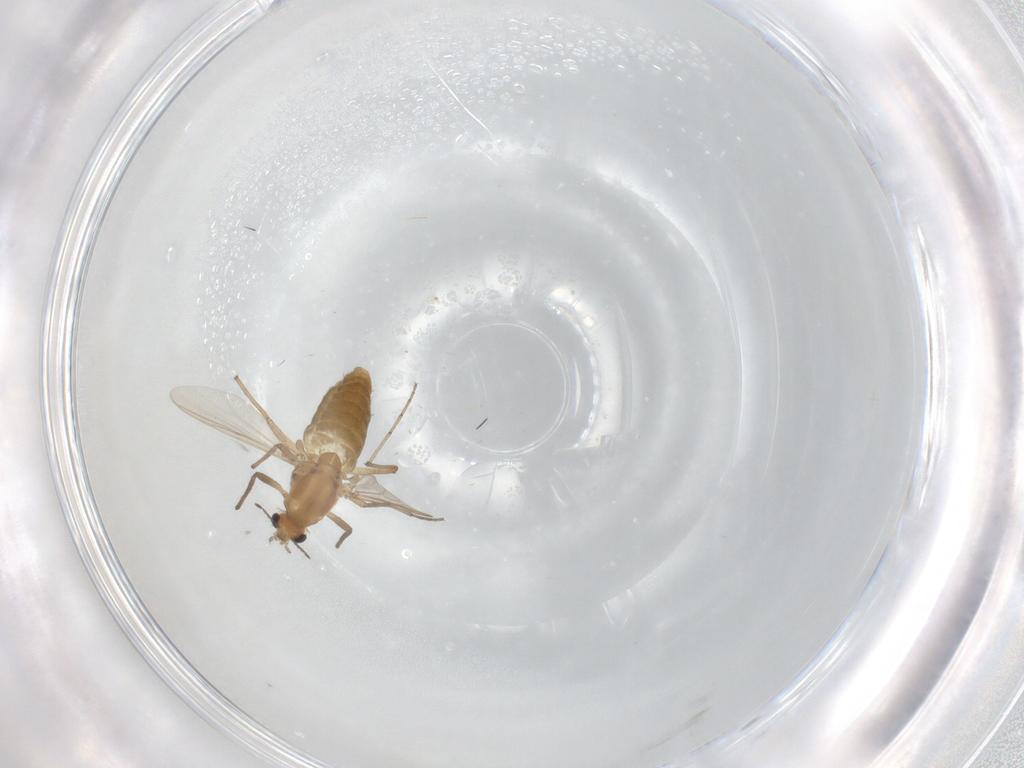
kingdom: Animalia
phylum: Arthropoda
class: Insecta
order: Diptera
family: Chironomidae
